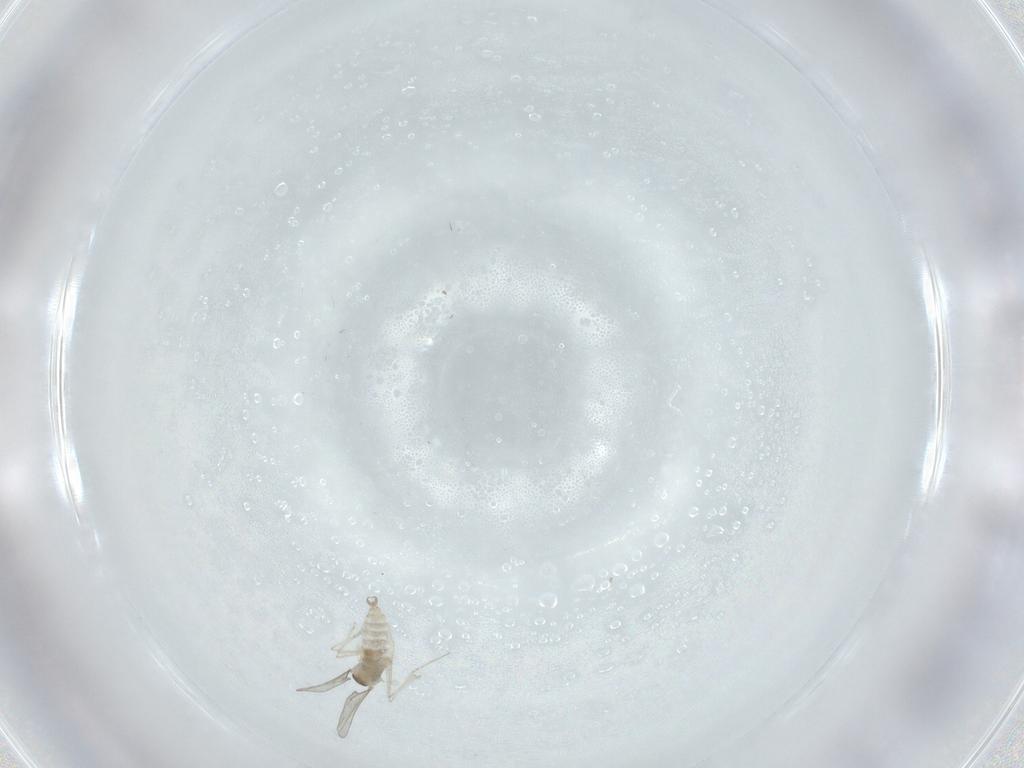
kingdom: Animalia
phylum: Arthropoda
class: Insecta
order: Diptera
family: Cecidomyiidae
